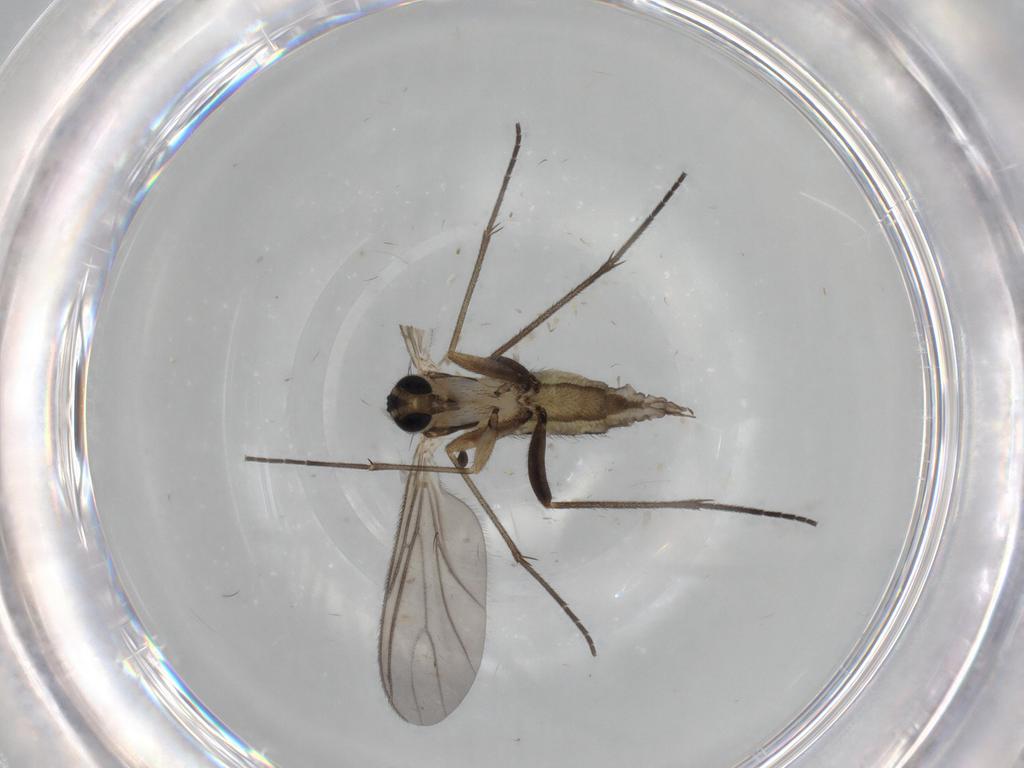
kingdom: Animalia
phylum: Arthropoda
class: Insecta
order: Diptera
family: Sciaridae
